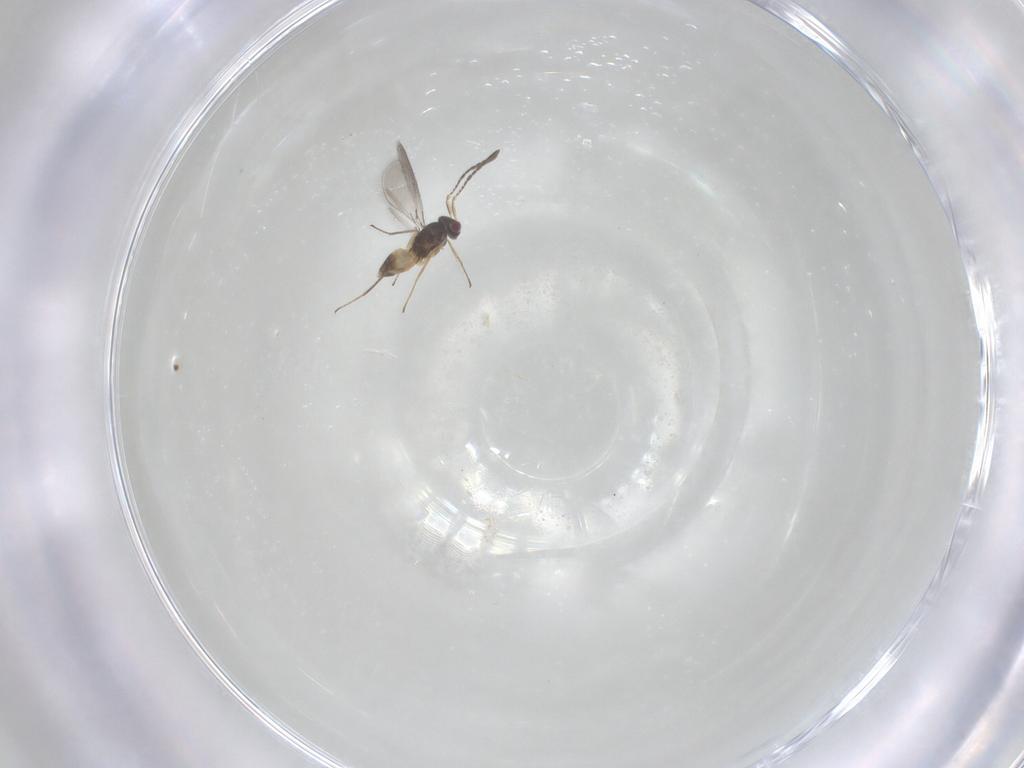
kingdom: Animalia
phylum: Arthropoda
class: Insecta
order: Hymenoptera
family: Mymaridae
